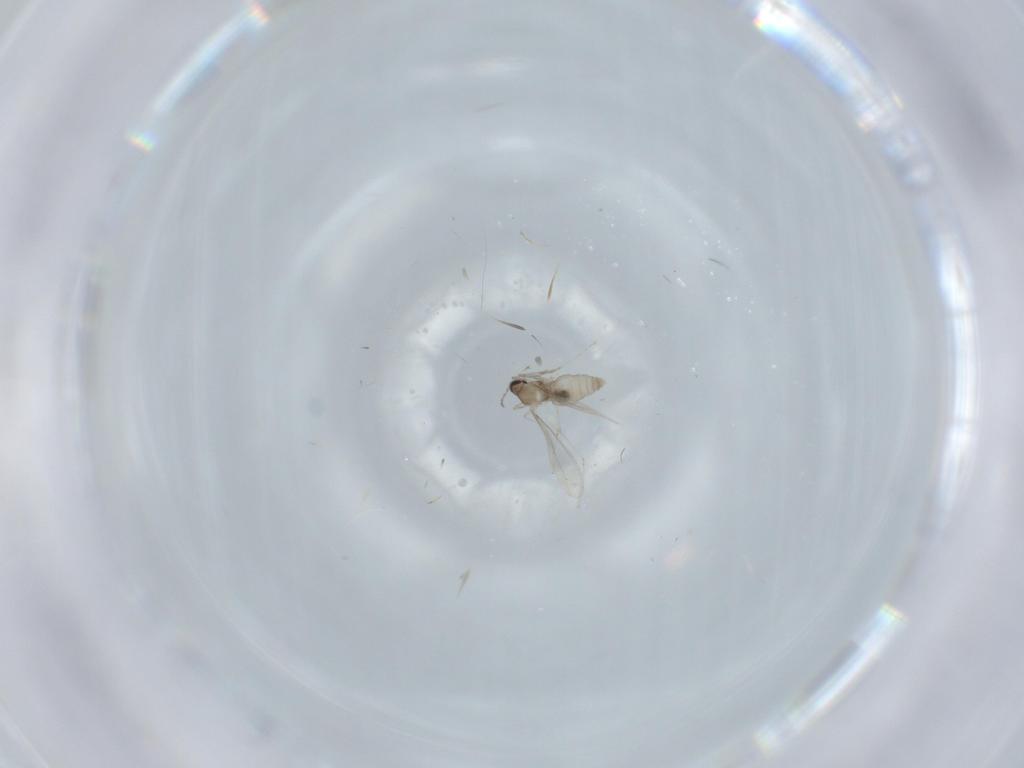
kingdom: Animalia
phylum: Arthropoda
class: Insecta
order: Diptera
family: Cecidomyiidae
